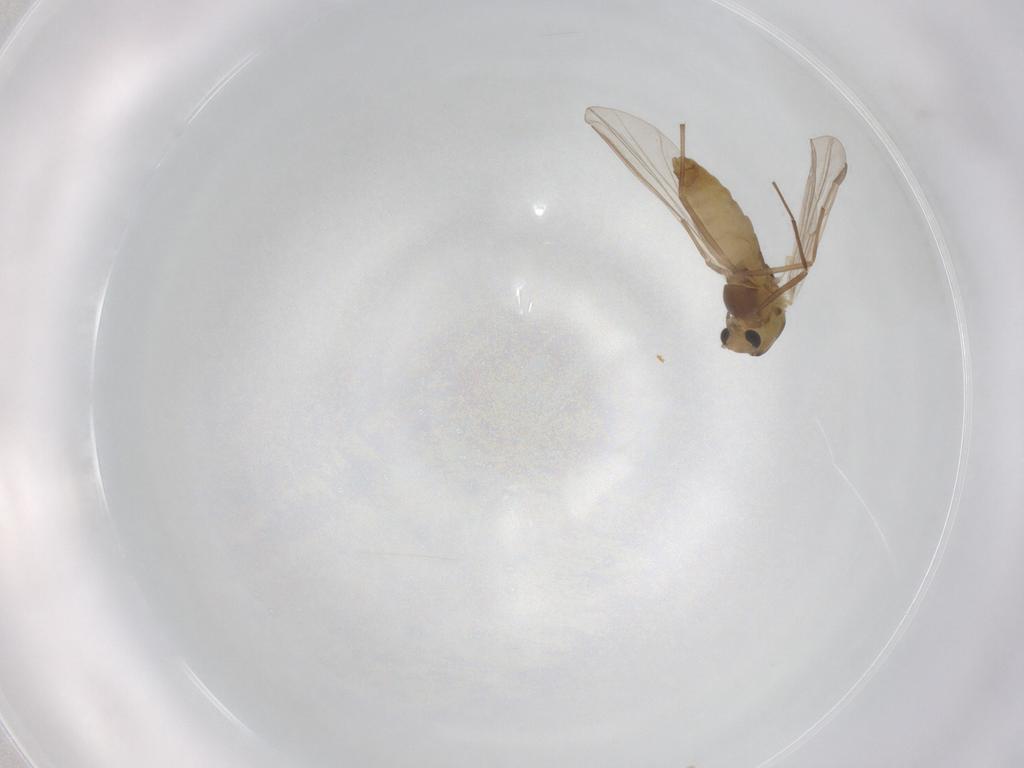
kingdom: Animalia
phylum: Arthropoda
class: Insecta
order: Diptera
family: Chironomidae
